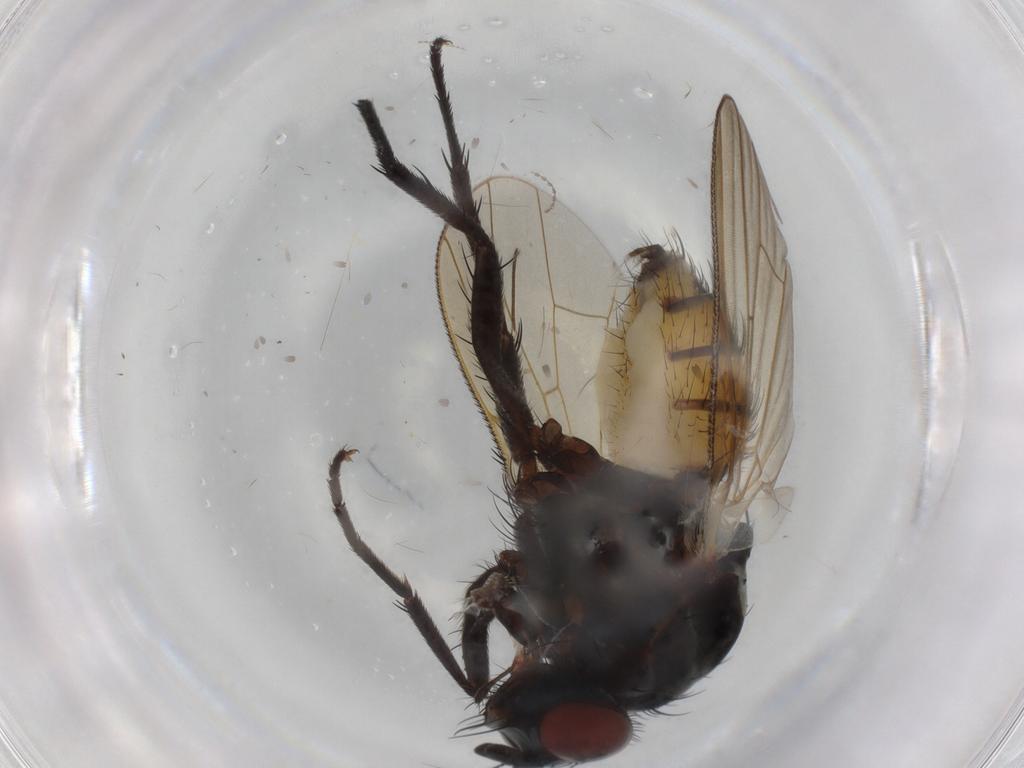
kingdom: Animalia
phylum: Arthropoda
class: Insecta
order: Diptera
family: Anthomyiidae
